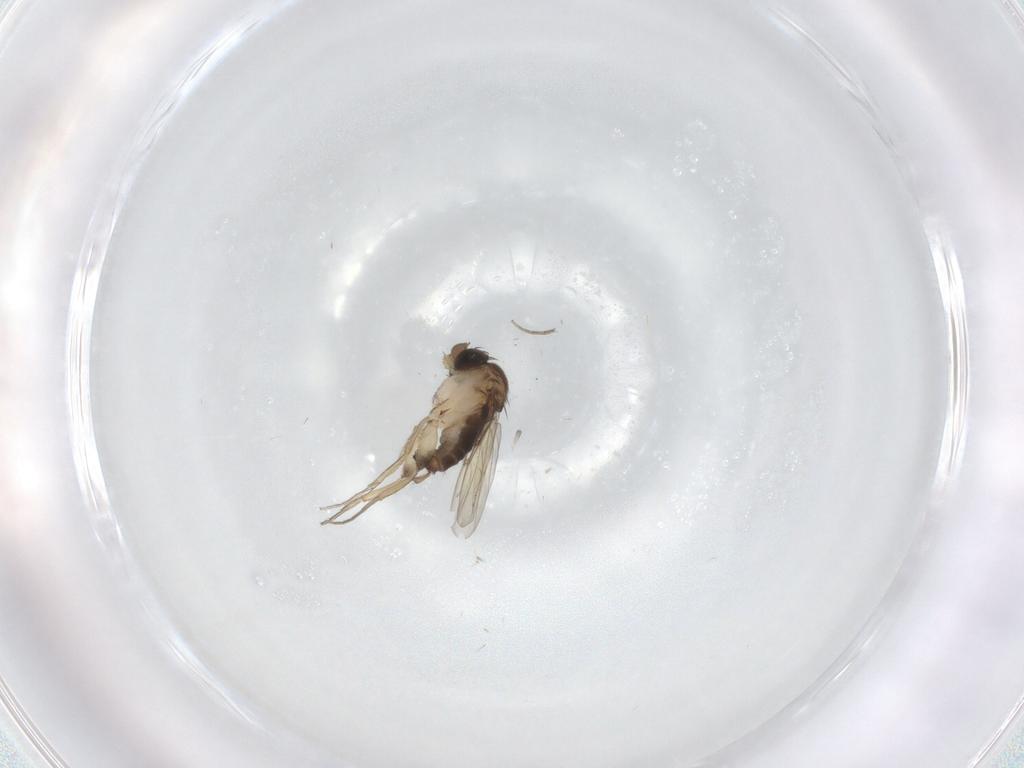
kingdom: Animalia
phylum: Arthropoda
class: Insecta
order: Diptera
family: Cecidomyiidae
